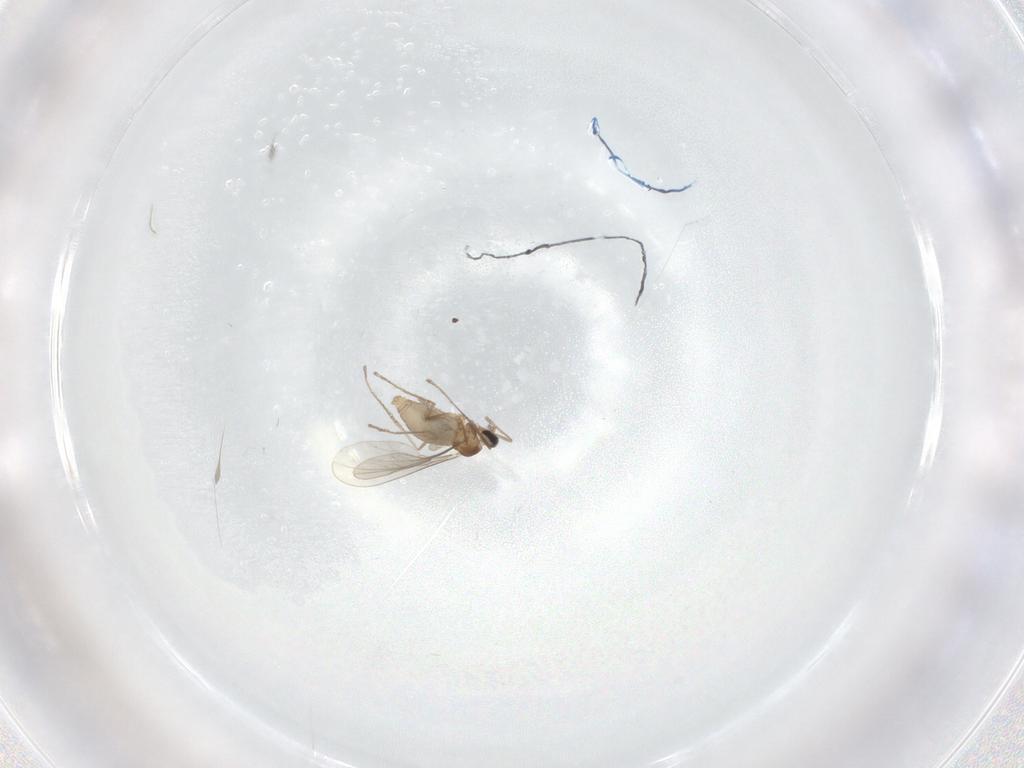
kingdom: Animalia
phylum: Arthropoda
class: Insecta
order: Diptera
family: Cecidomyiidae
